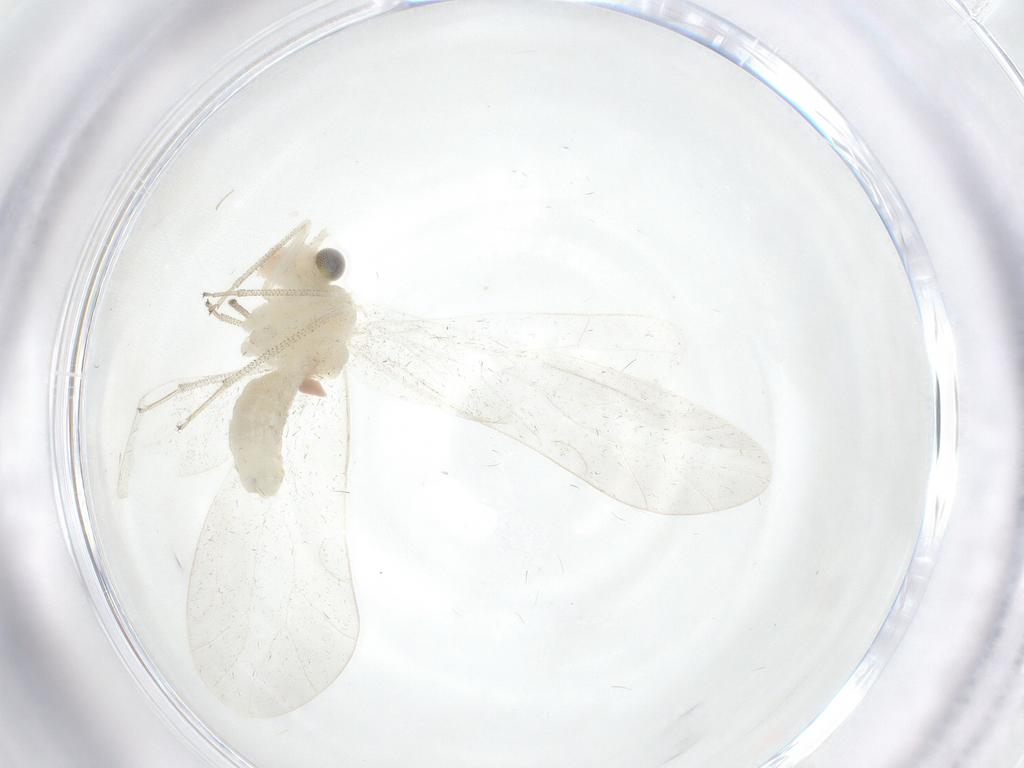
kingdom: Animalia
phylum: Arthropoda
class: Insecta
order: Psocodea
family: Caeciliusidae
